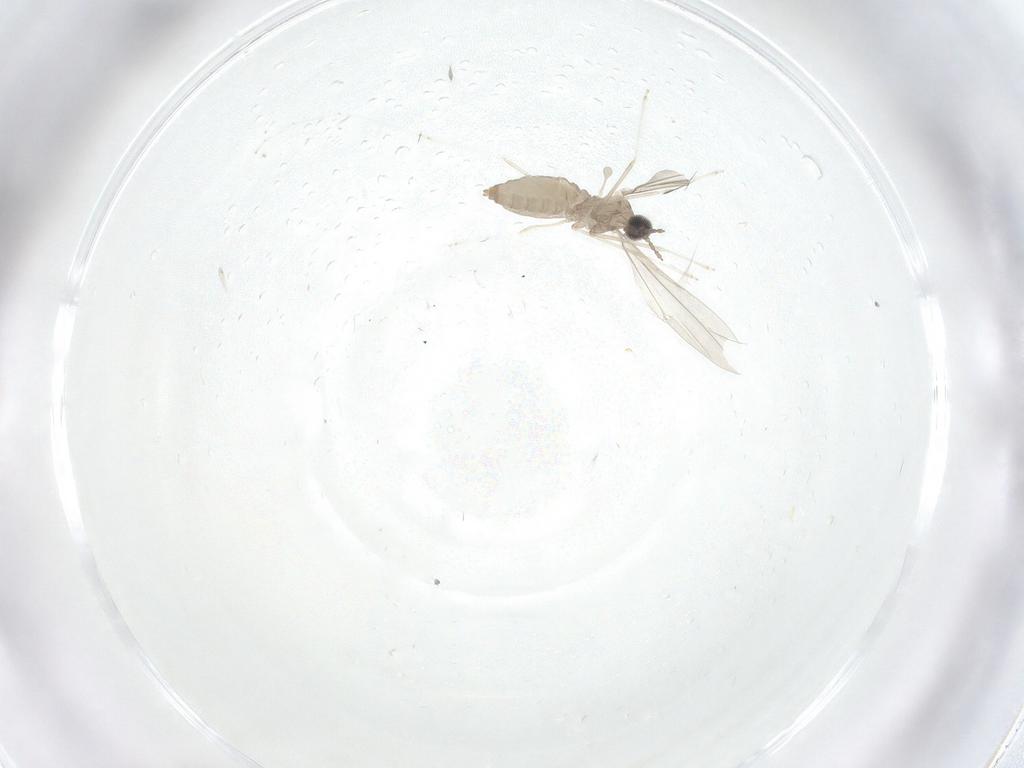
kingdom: Animalia
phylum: Arthropoda
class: Insecta
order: Diptera
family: Cecidomyiidae
